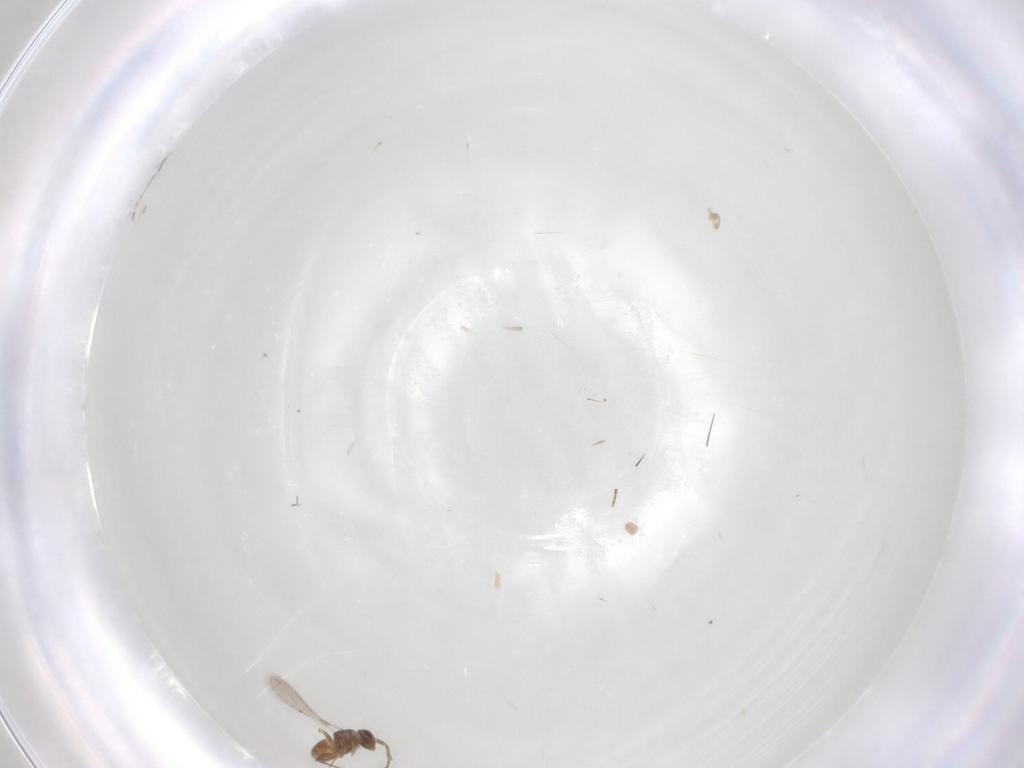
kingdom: Animalia
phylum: Arthropoda
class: Insecta
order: Hymenoptera
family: Mymaridae
